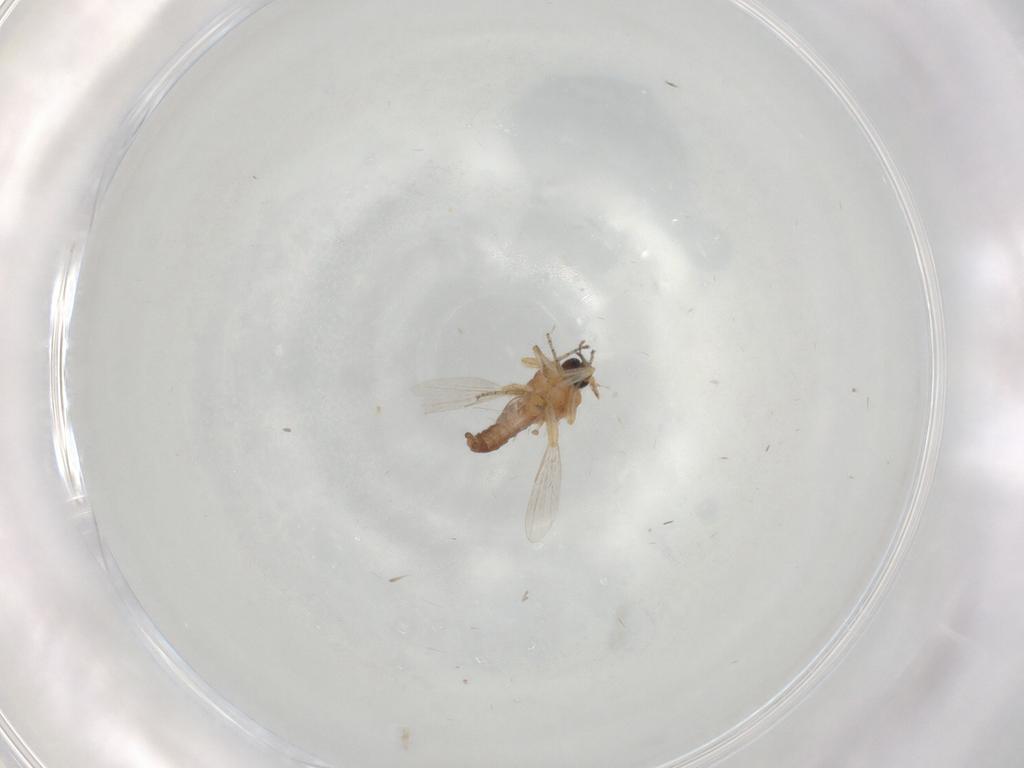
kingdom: Animalia
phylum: Arthropoda
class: Insecta
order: Diptera
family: Ceratopogonidae
